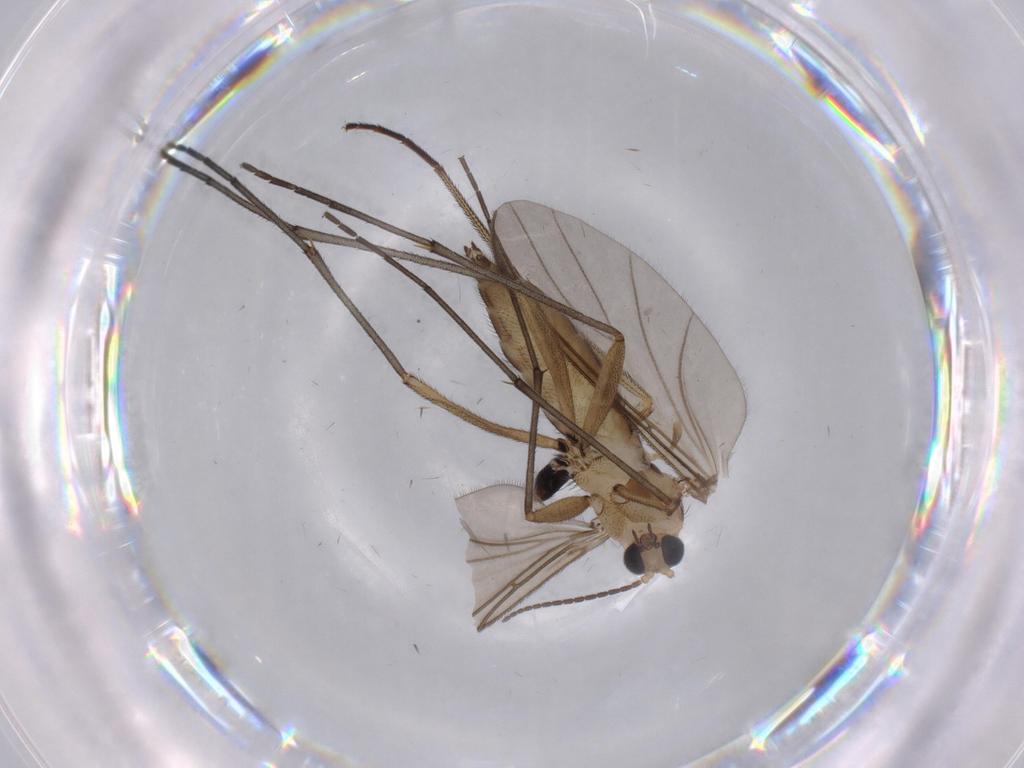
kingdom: Animalia
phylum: Arthropoda
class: Insecta
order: Diptera
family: Sciaridae
